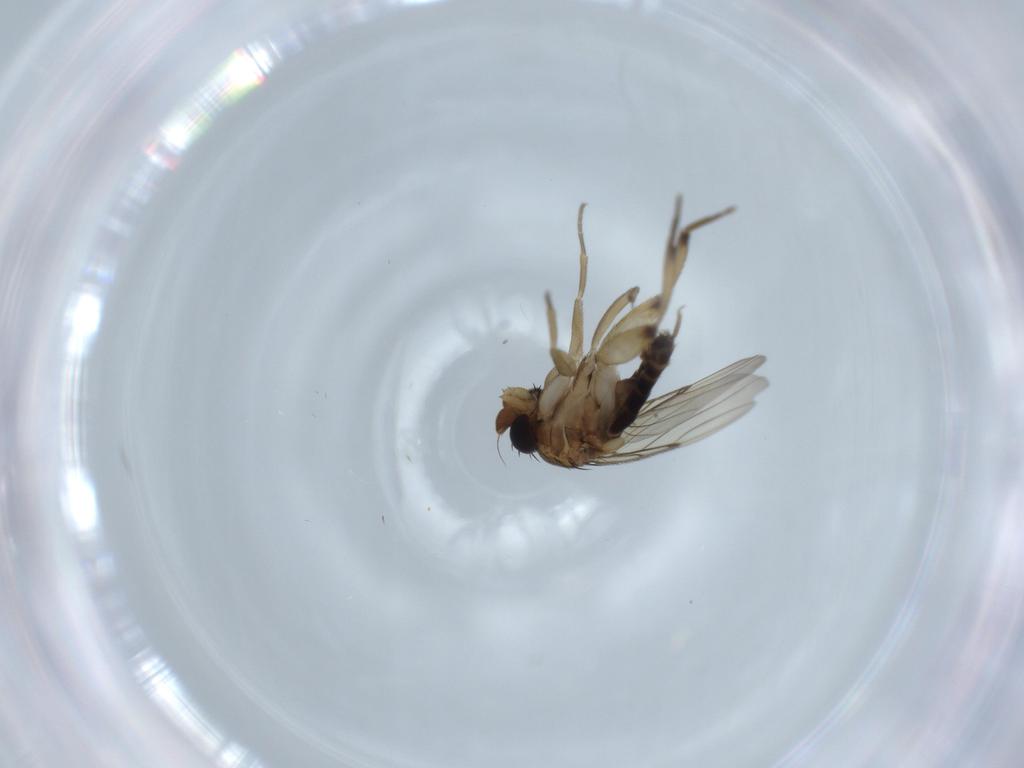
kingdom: Animalia
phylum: Arthropoda
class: Insecta
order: Diptera
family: Phoridae
